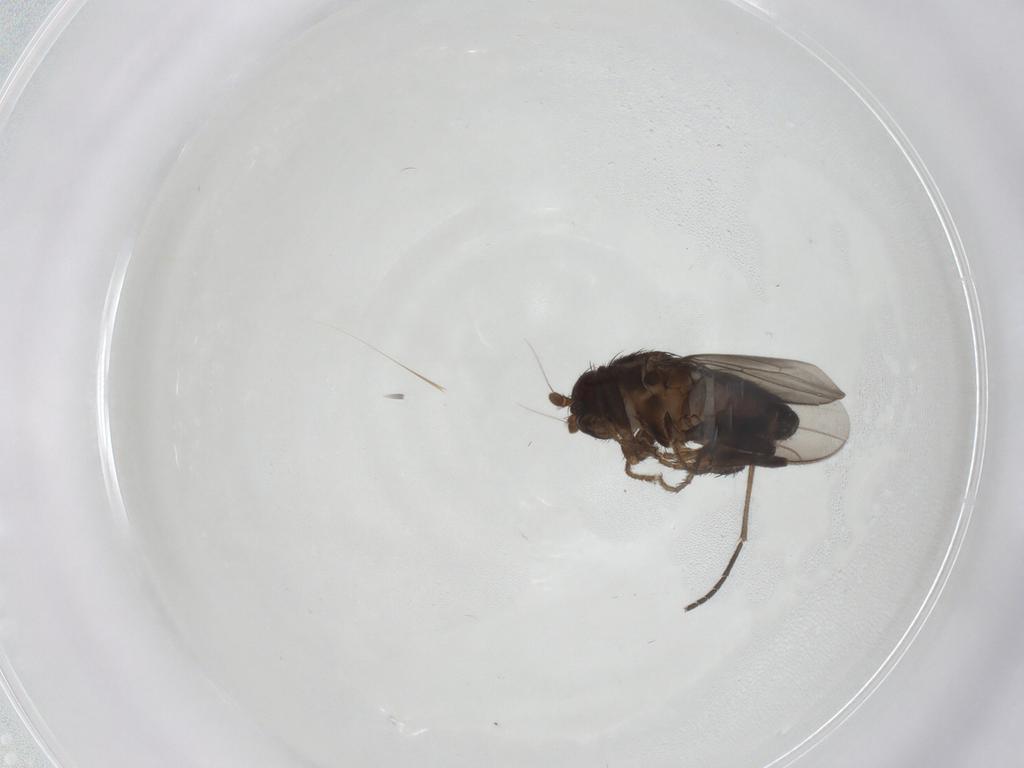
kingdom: Animalia
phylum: Arthropoda
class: Insecta
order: Diptera
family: Sphaeroceridae
